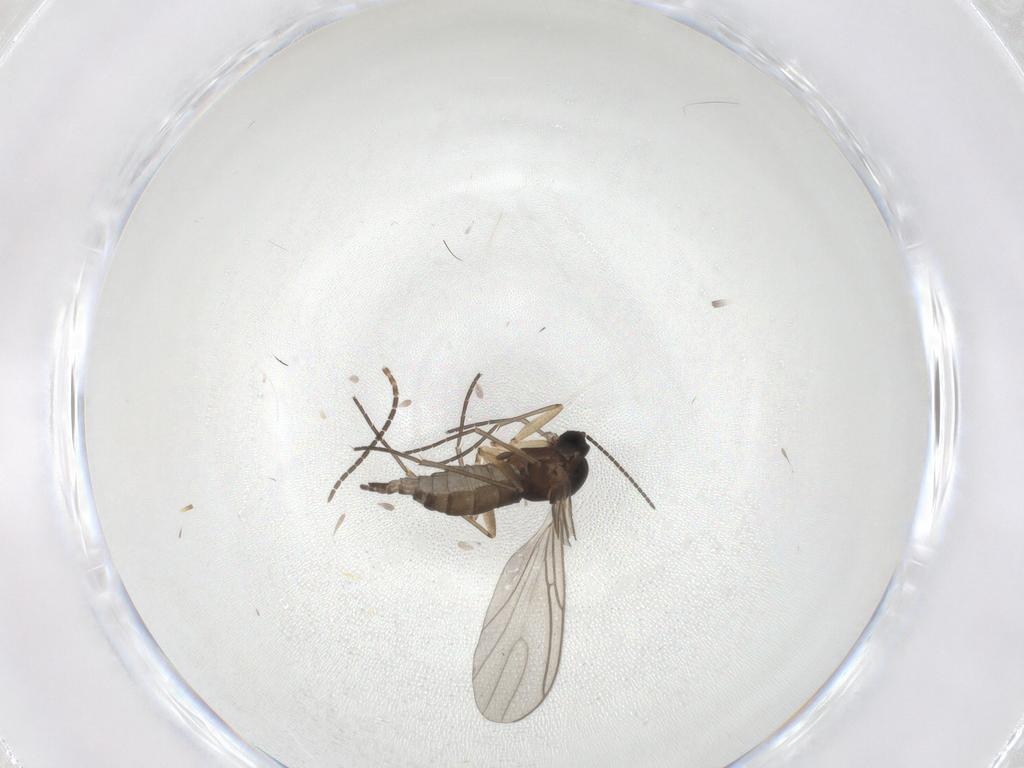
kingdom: Animalia
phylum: Arthropoda
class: Insecta
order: Diptera
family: Sciaridae
